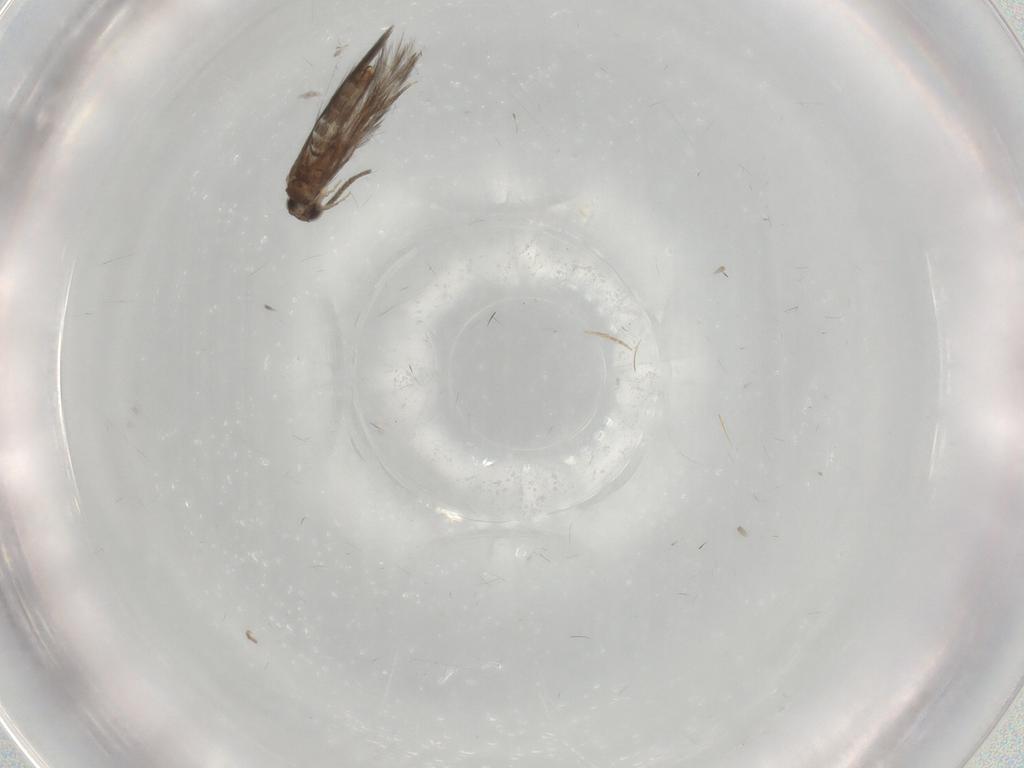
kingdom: Animalia
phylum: Arthropoda
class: Insecta
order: Trichoptera
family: Hydroptilidae
